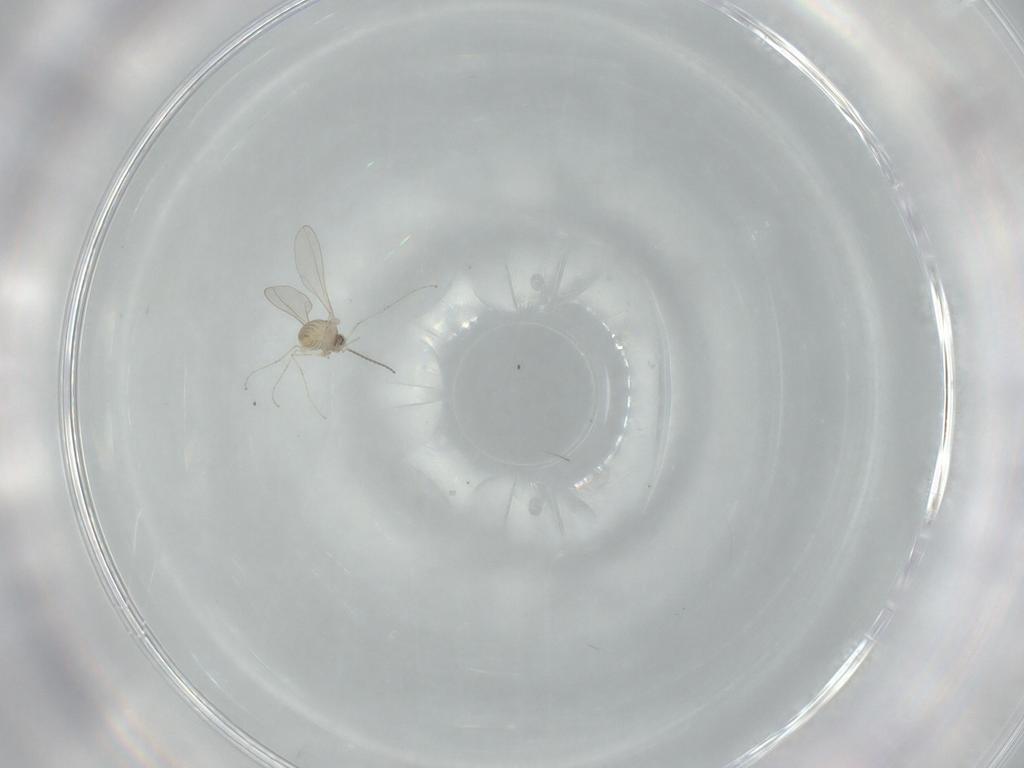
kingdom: Animalia
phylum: Arthropoda
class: Insecta
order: Diptera
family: Chironomidae
